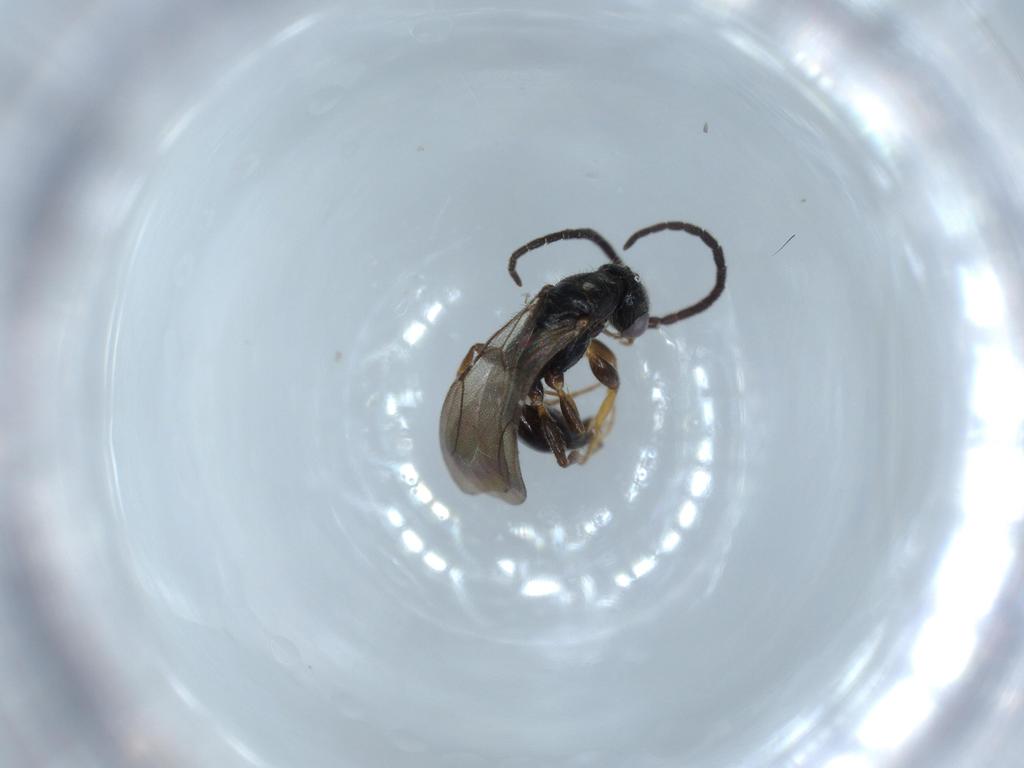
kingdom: Animalia
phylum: Arthropoda
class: Insecta
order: Hymenoptera
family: Bethylidae
